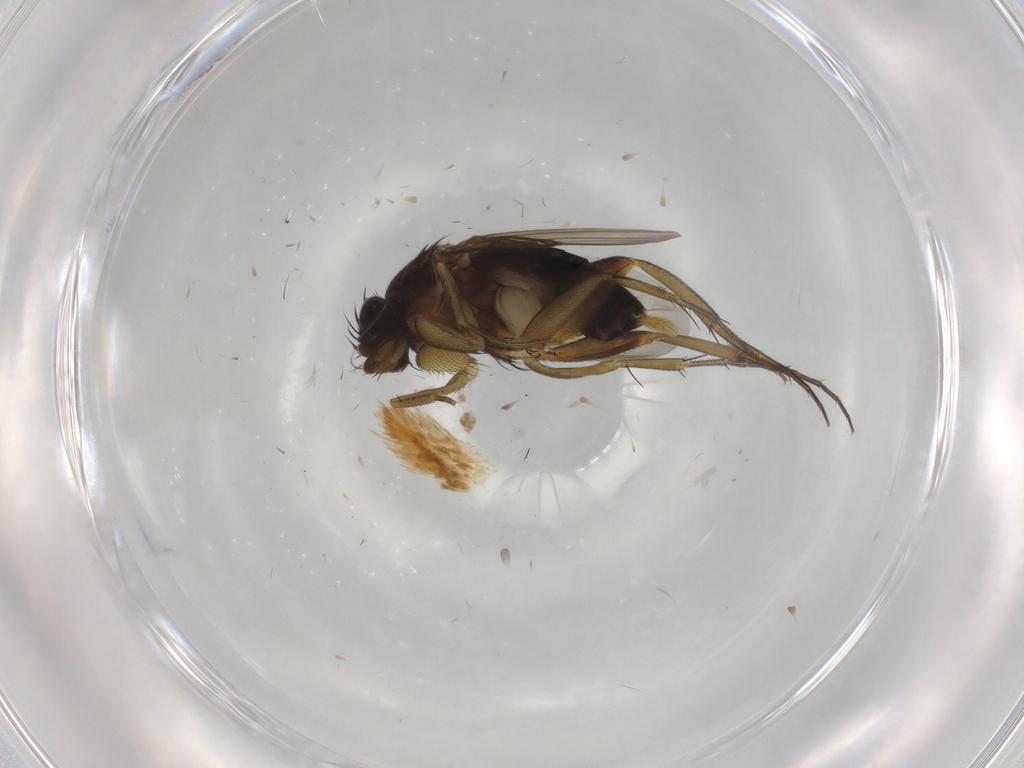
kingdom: Animalia
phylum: Arthropoda
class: Insecta
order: Diptera
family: Phoridae
